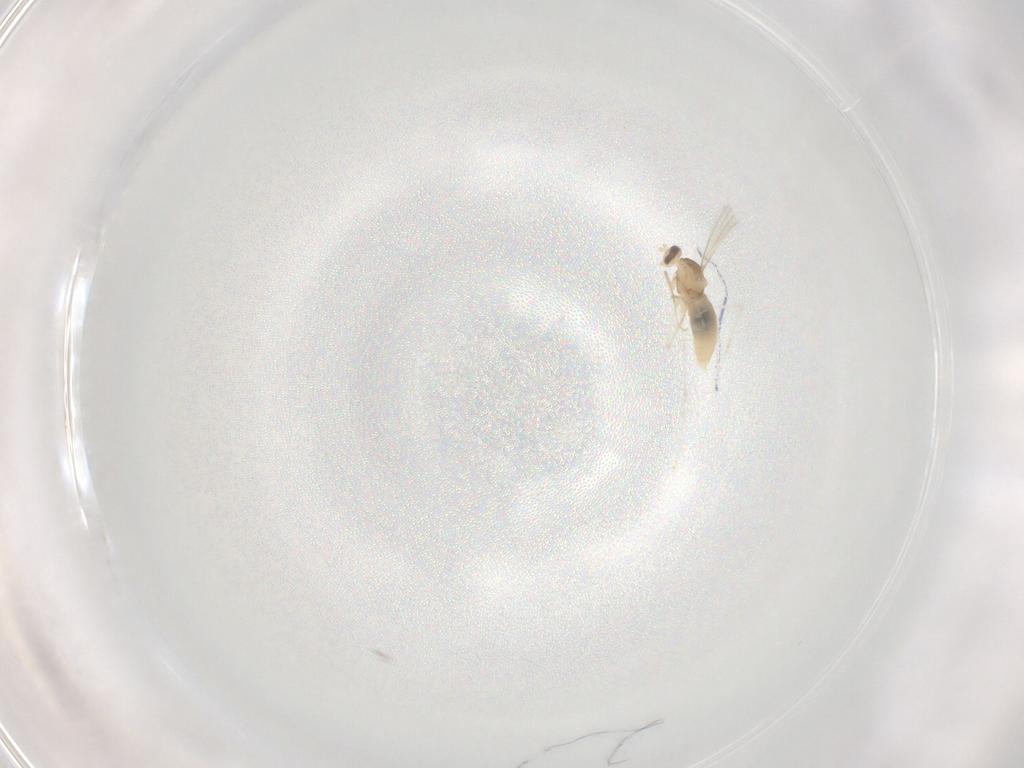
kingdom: Animalia
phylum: Arthropoda
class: Insecta
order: Diptera
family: Cecidomyiidae
